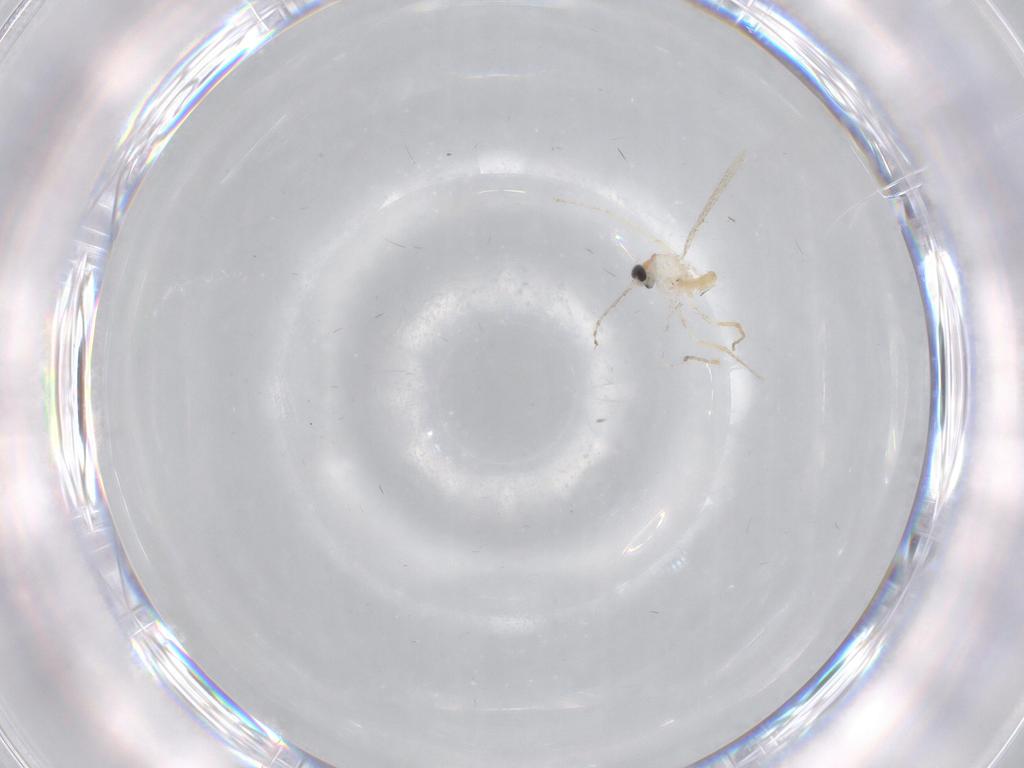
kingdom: Animalia
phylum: Arthropoda
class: Insecta
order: Diptera
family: Cecidomyiidae
